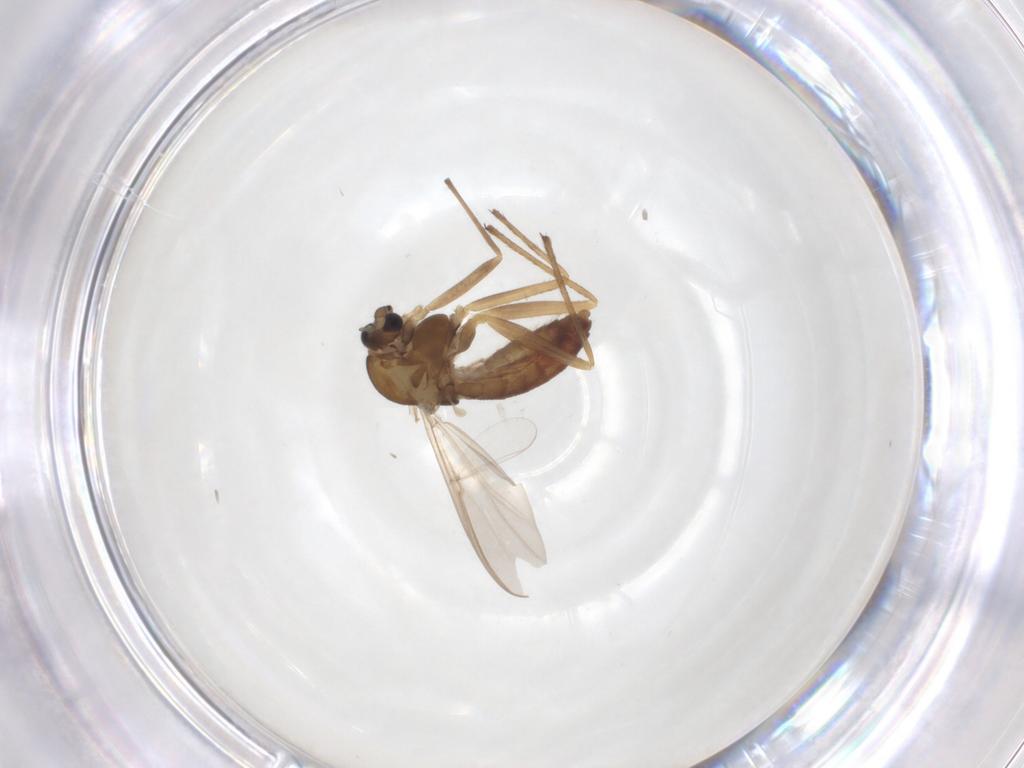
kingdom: Animalia
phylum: Arthropoda
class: Insecta
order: Diptera
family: Chironomidae
